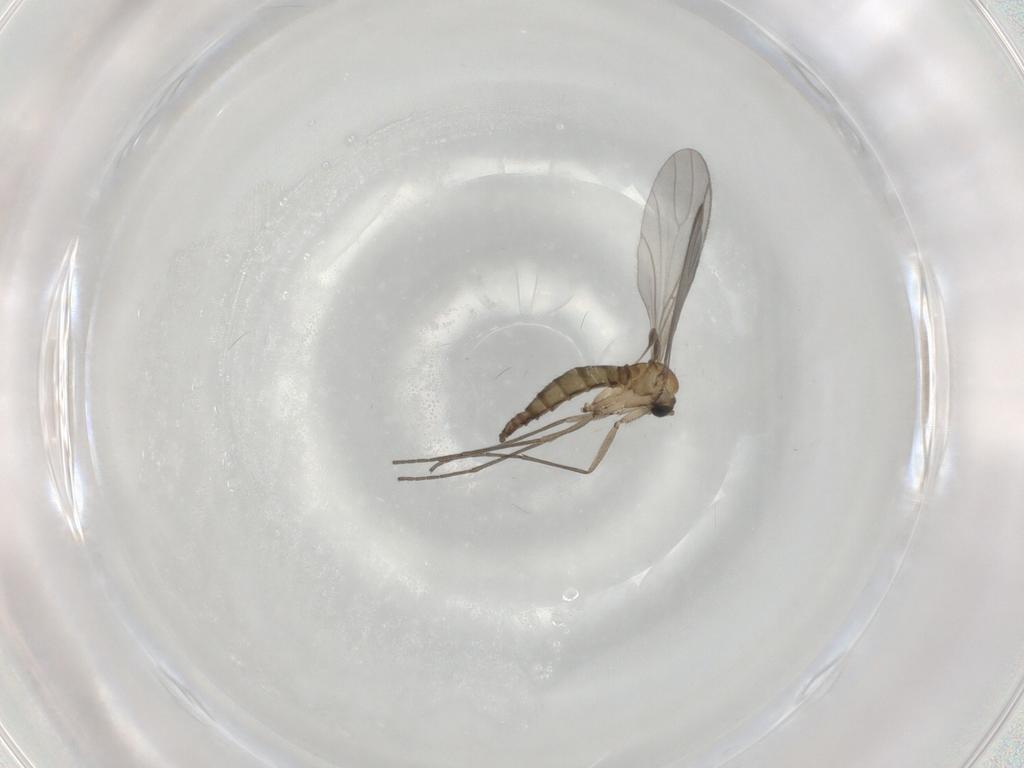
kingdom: Animalia
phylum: Arthropoda
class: Insecta
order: Diptera
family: Sciaridae
